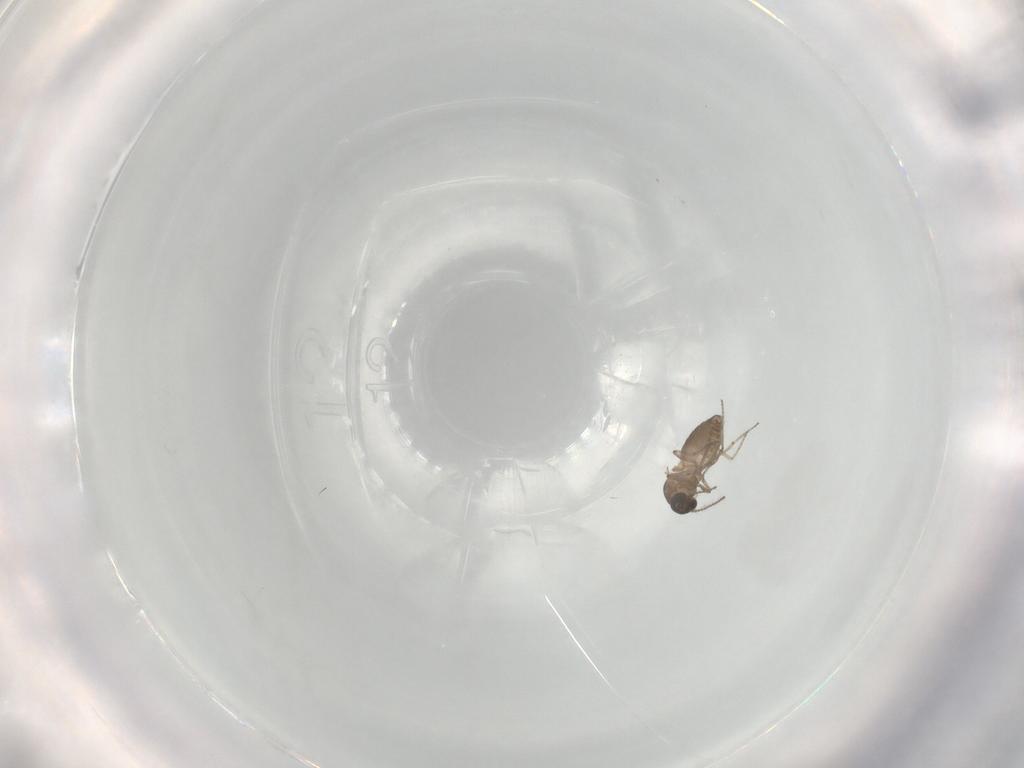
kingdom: Animalia
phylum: Arthropoda
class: Insecta
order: Diptera
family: Ceratopogonidae
